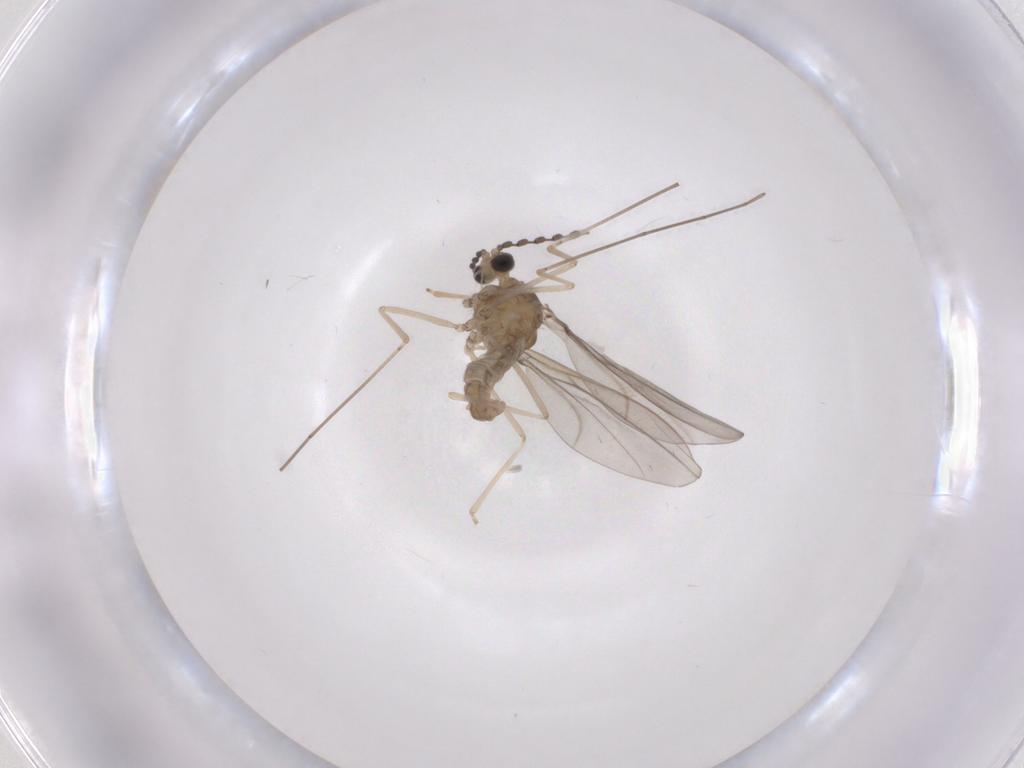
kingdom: Animalia
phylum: Arthropoda
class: Insecta
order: Diptera
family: Cecidomyiidae
